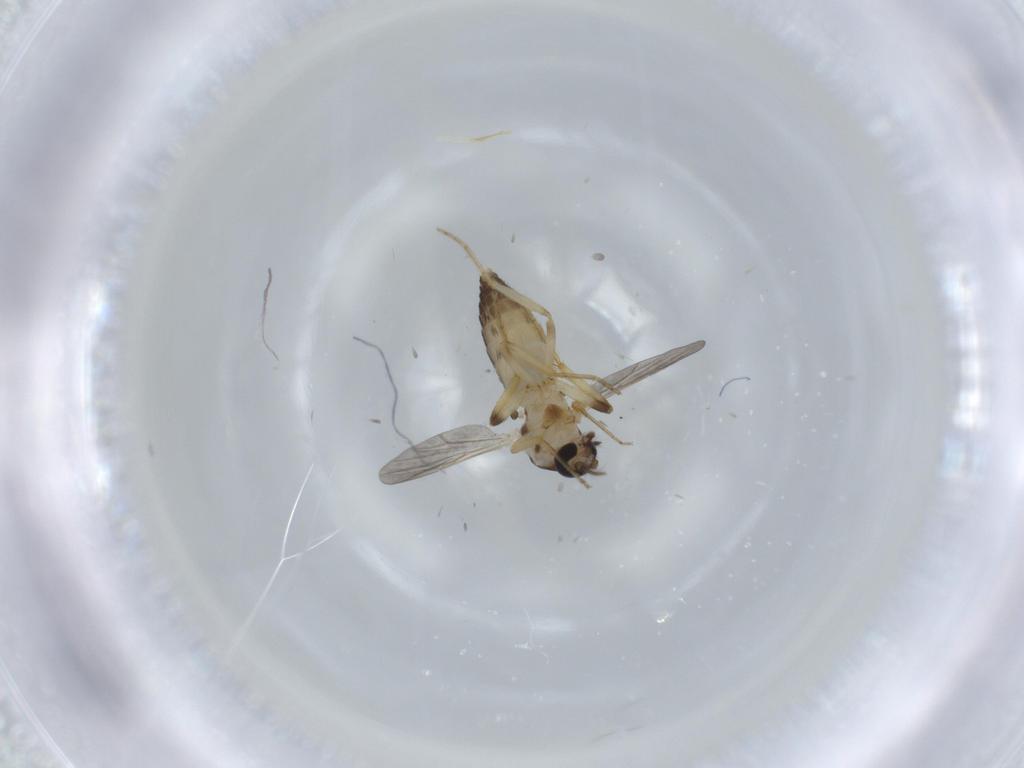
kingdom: Animalia
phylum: Arthropoda
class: Insecta
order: Diptera
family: Ceratopogonidae
